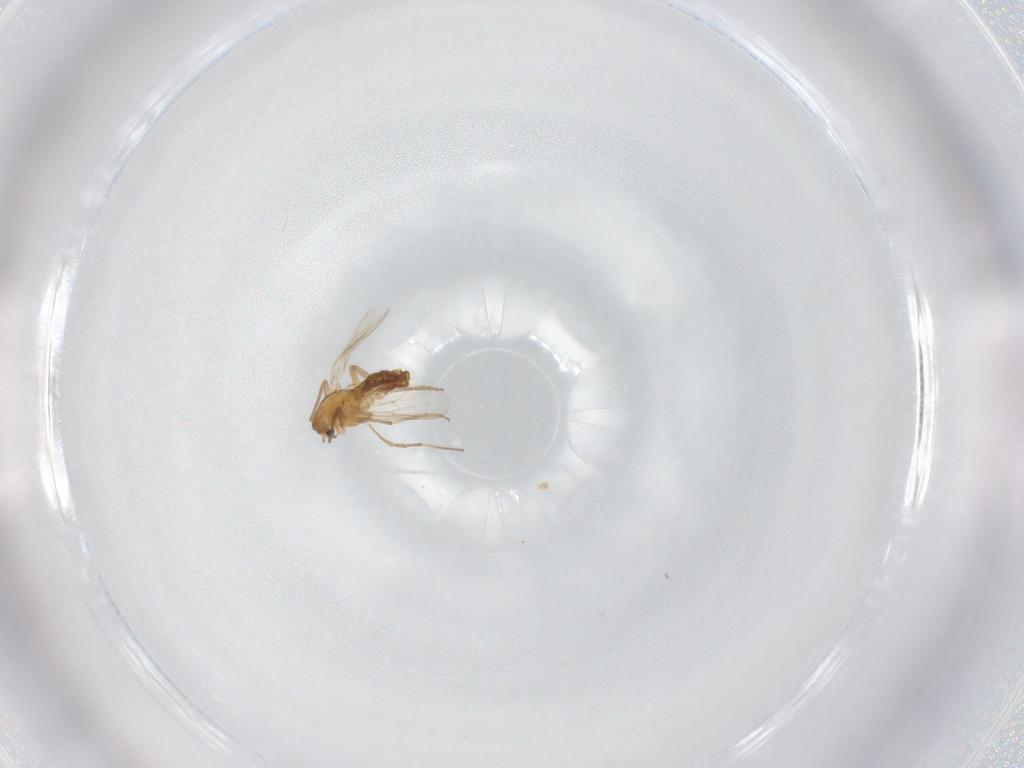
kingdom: Animalia
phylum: Arthropoda
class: Insecta
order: Diptera
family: Chironomidae
